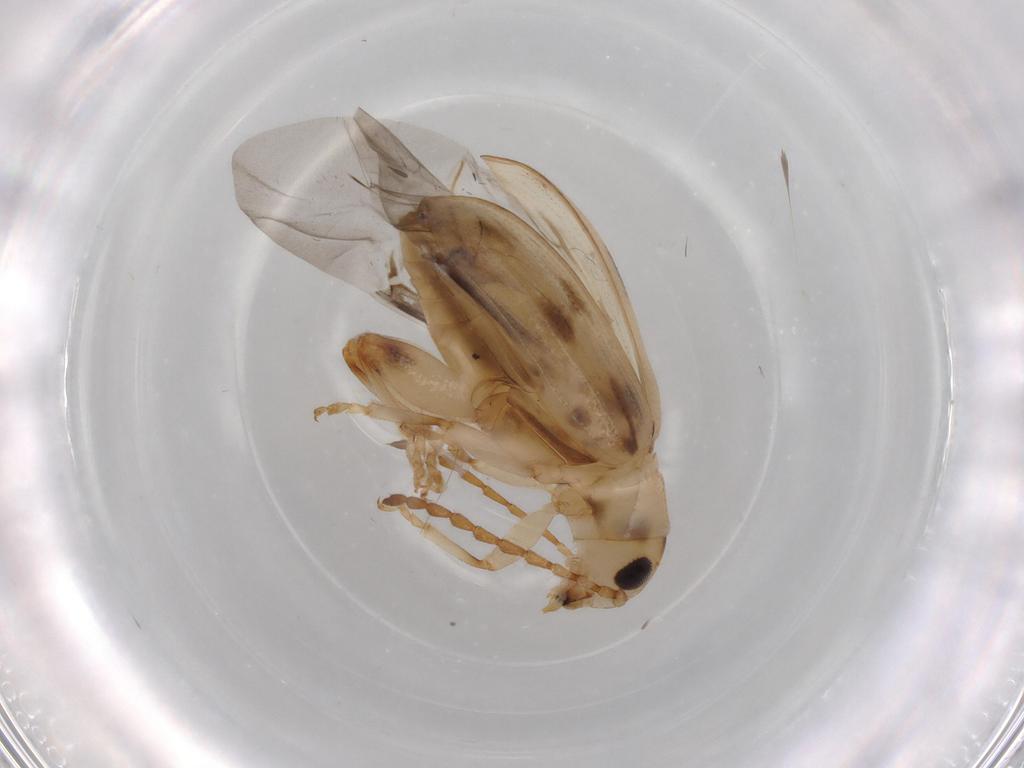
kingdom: Animalia
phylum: Arthropoda
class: Insecta
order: Coleoptera
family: Chrysomelidae
